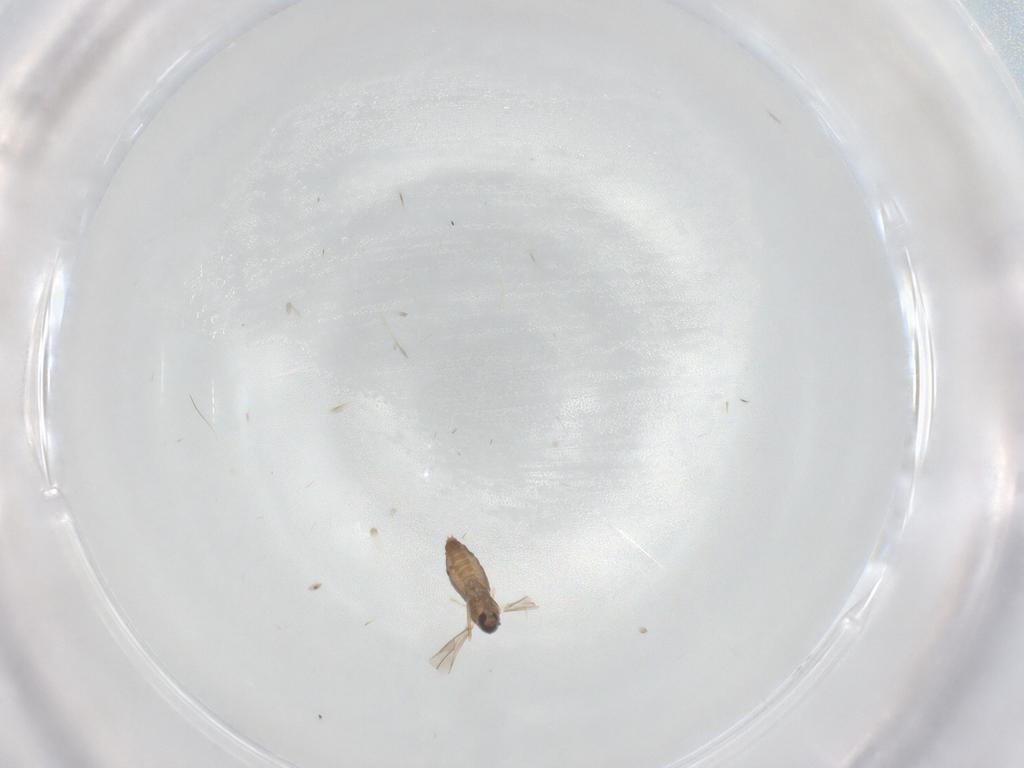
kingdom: Animalia
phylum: Arthropoda
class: Insecta
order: Diptera
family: Cecidomyiidae
